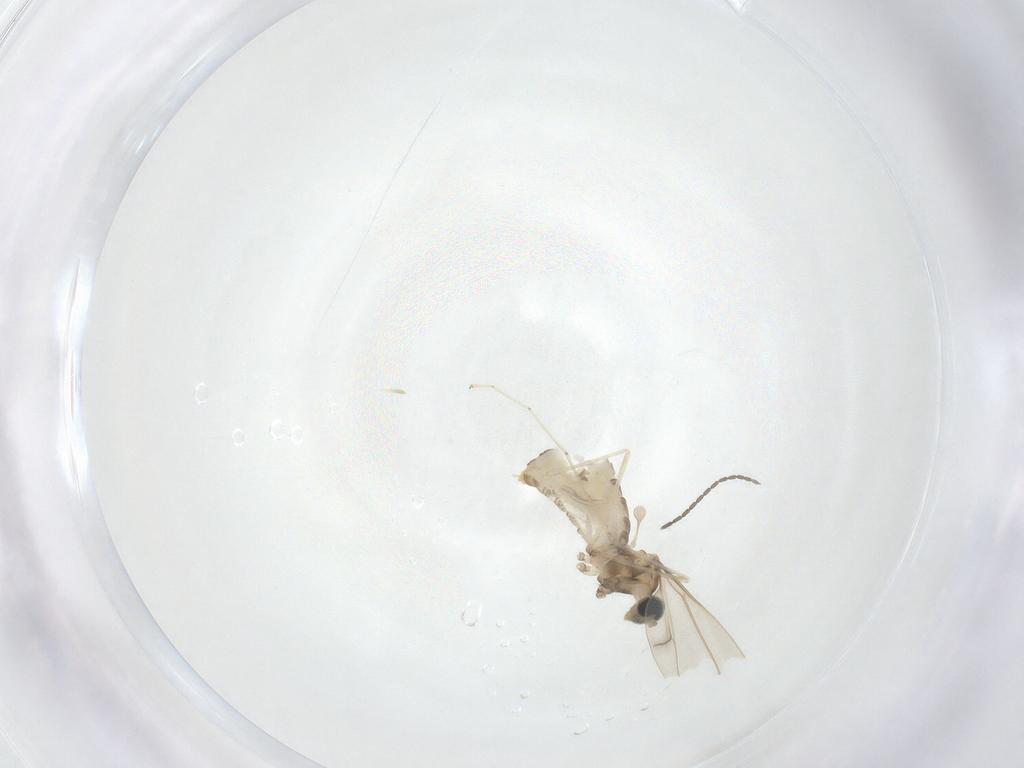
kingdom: Animalia
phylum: Arthropoda
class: Insecta
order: Diptera
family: Cecidomyiidae
